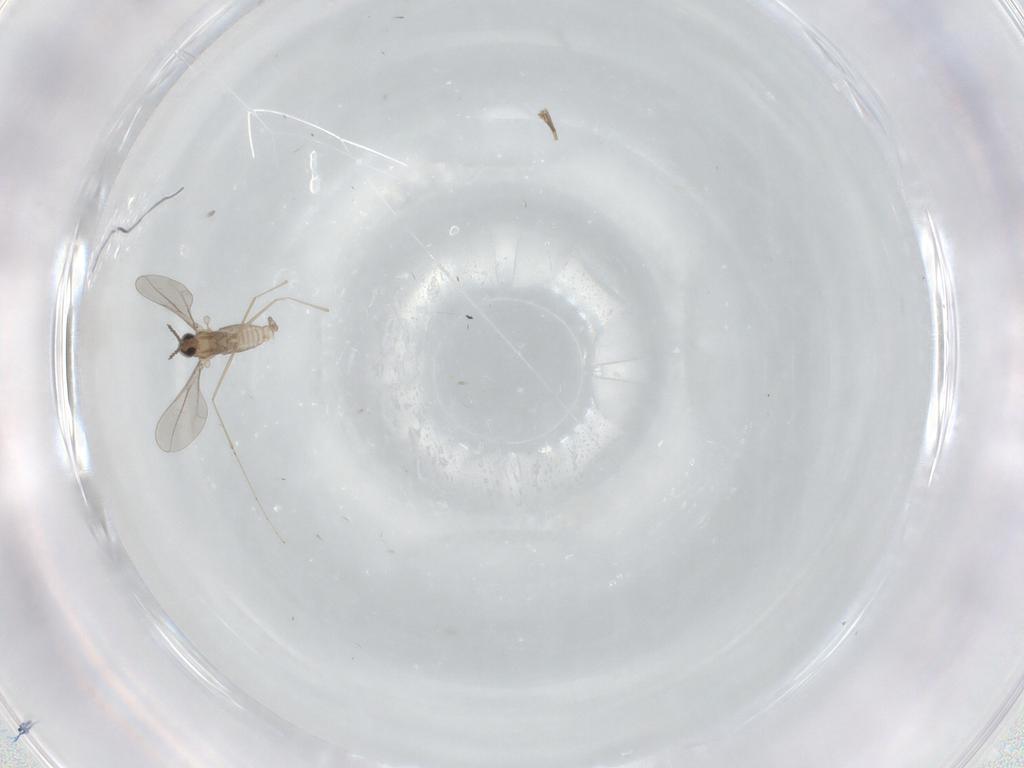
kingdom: Animalia
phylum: Arthropoda
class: Insecta
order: Diptera
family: Cecidomyiidae
